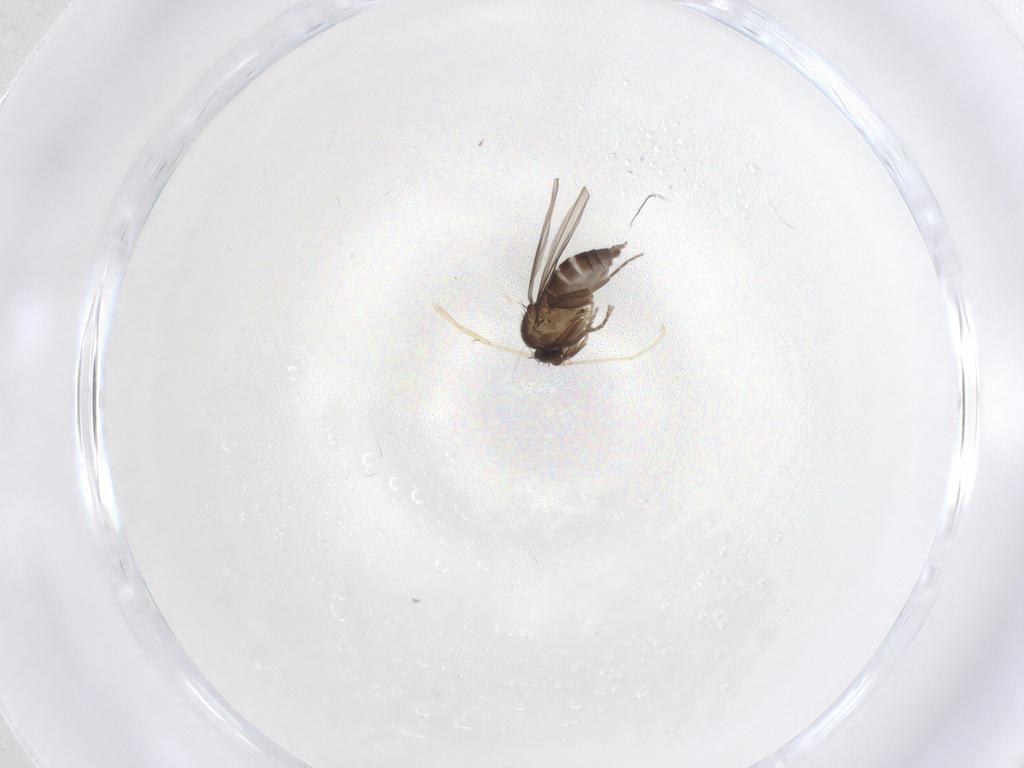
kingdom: Animalia
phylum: Arthropoda
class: Insecta
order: Diptera
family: Cecidomyiidae
